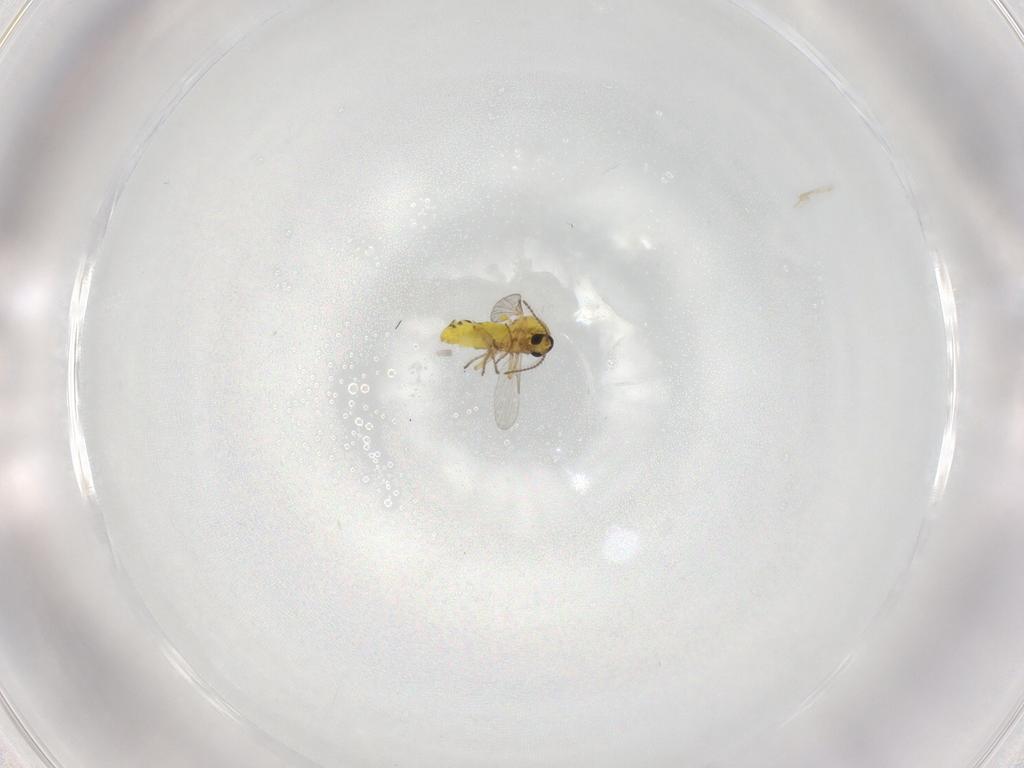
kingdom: Animalia
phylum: Arthropoda
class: Insecta
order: Diptera
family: Ceratopogonidae
